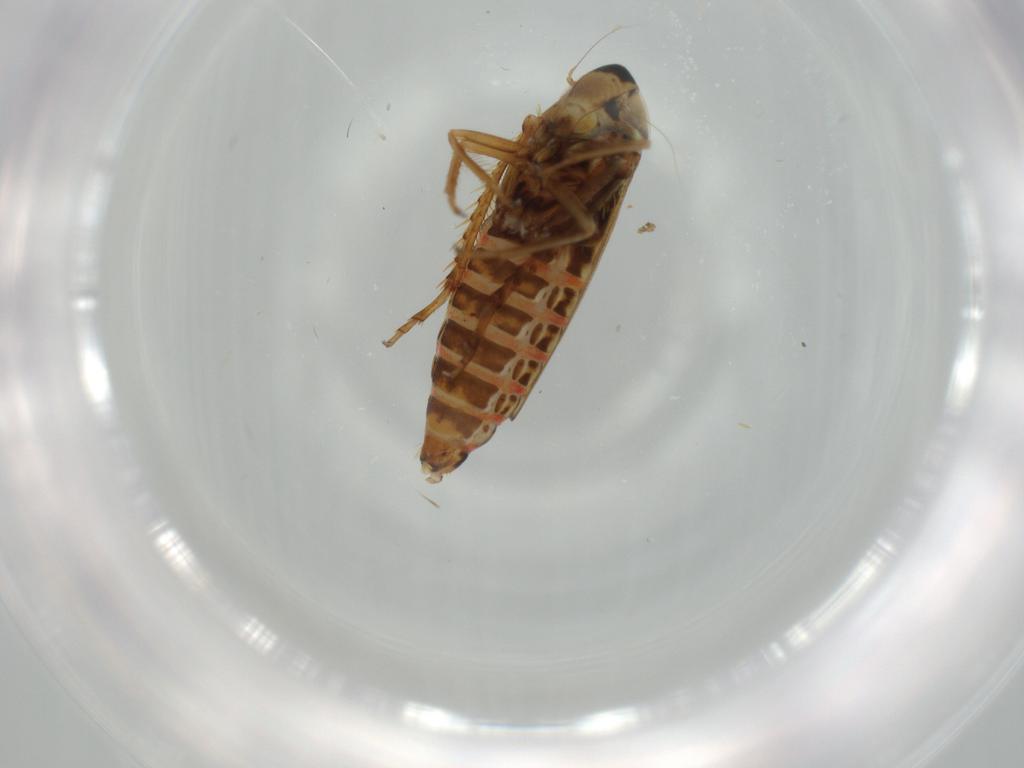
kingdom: Animalia
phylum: Arthropoda
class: Insecta
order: Hemiptera
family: Cicadellidae
